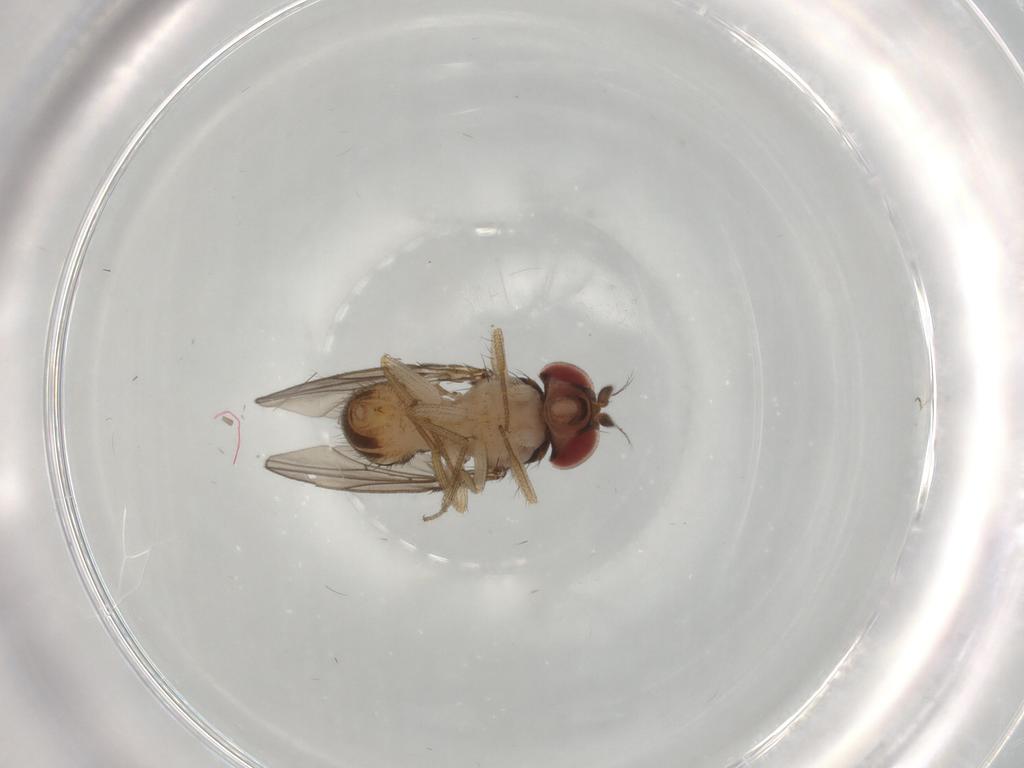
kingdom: Animalia
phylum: Arthropoda
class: Insecta
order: Diptera
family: Drosophilidae
